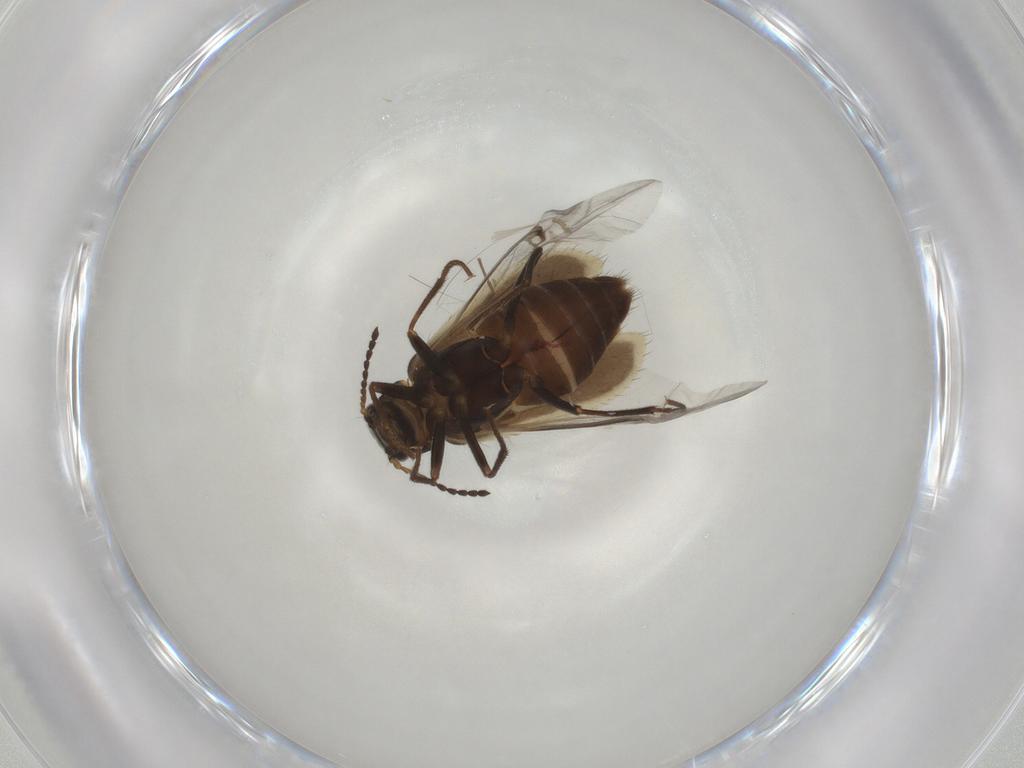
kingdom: Animalia
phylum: Arthropoda
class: Insecta
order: Coleoptera
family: Melyridae
